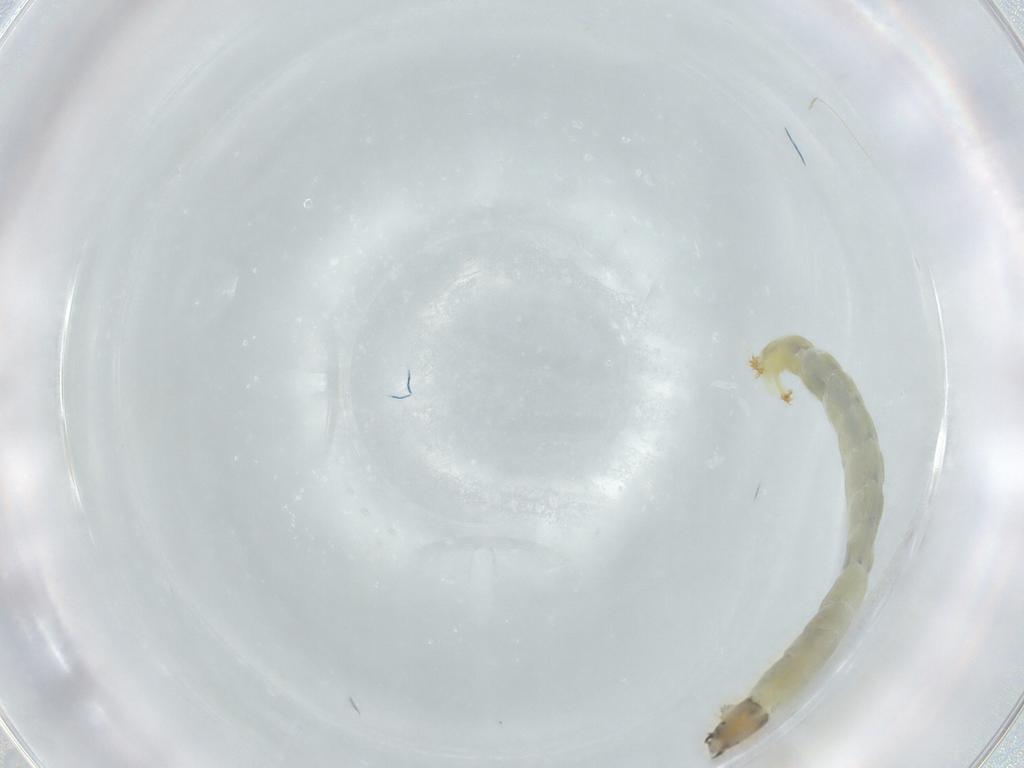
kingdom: Animalia
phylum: Arthropoda
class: Insecta
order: Diptera
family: Chironomidae
